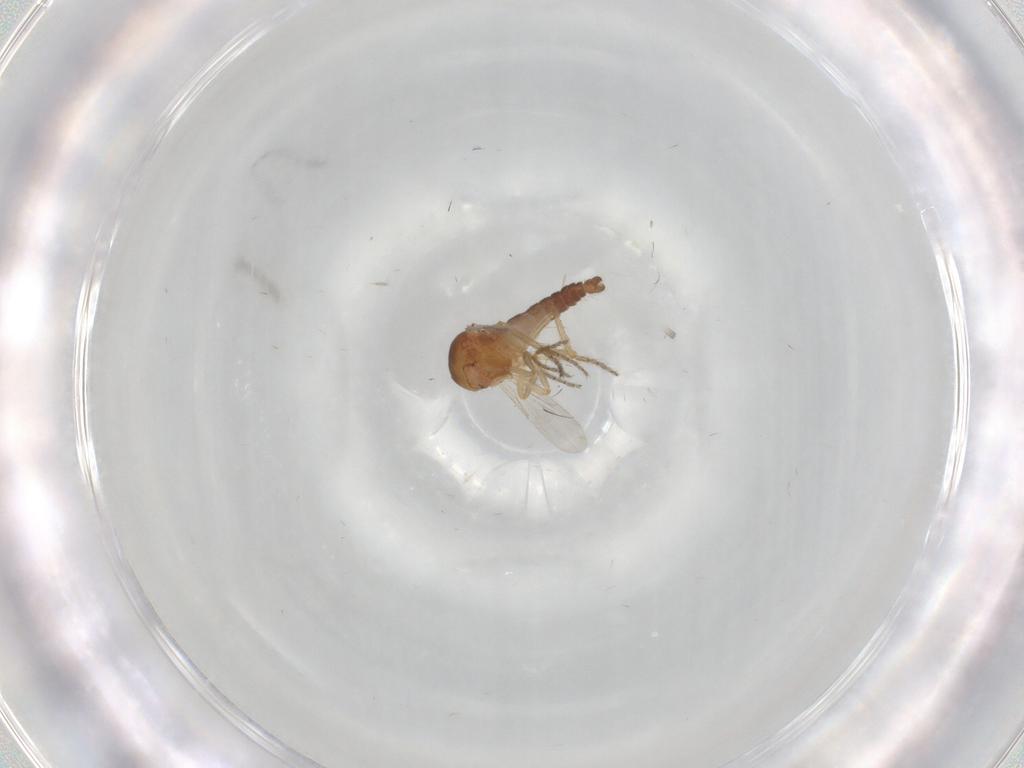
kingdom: Animalia
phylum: Arthropoda
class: Insecta
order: Diptera
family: Ceratopogonidae
